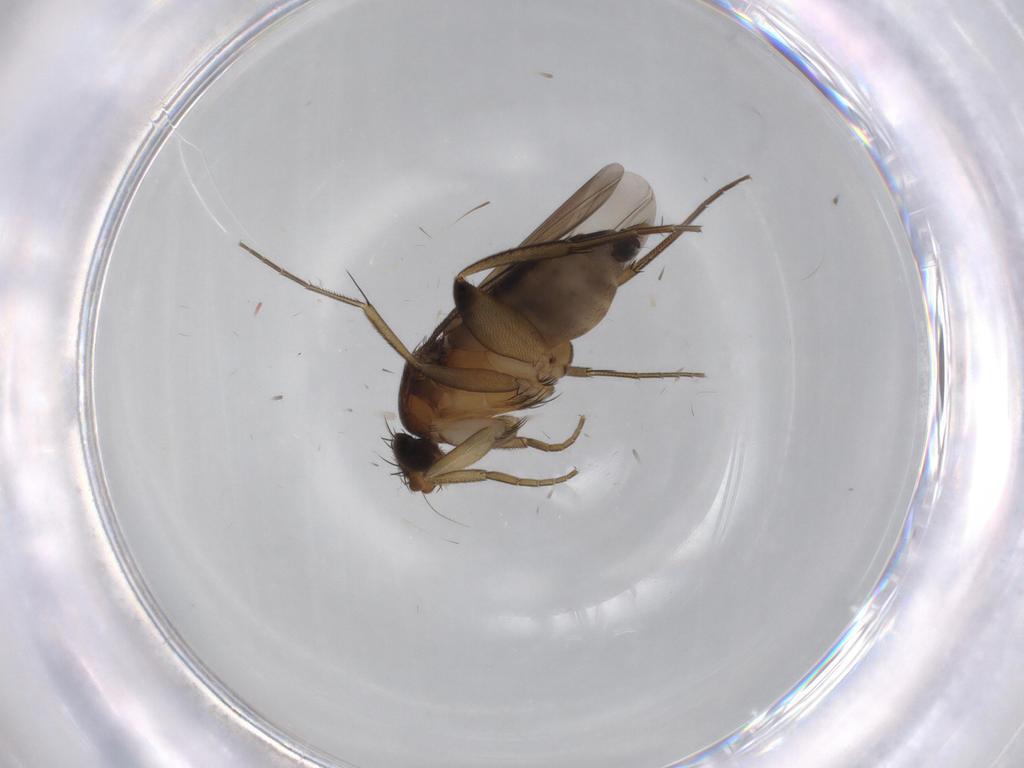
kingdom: Animalia
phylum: Arthropoda
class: Insecta
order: Diptera
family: Phoridae
